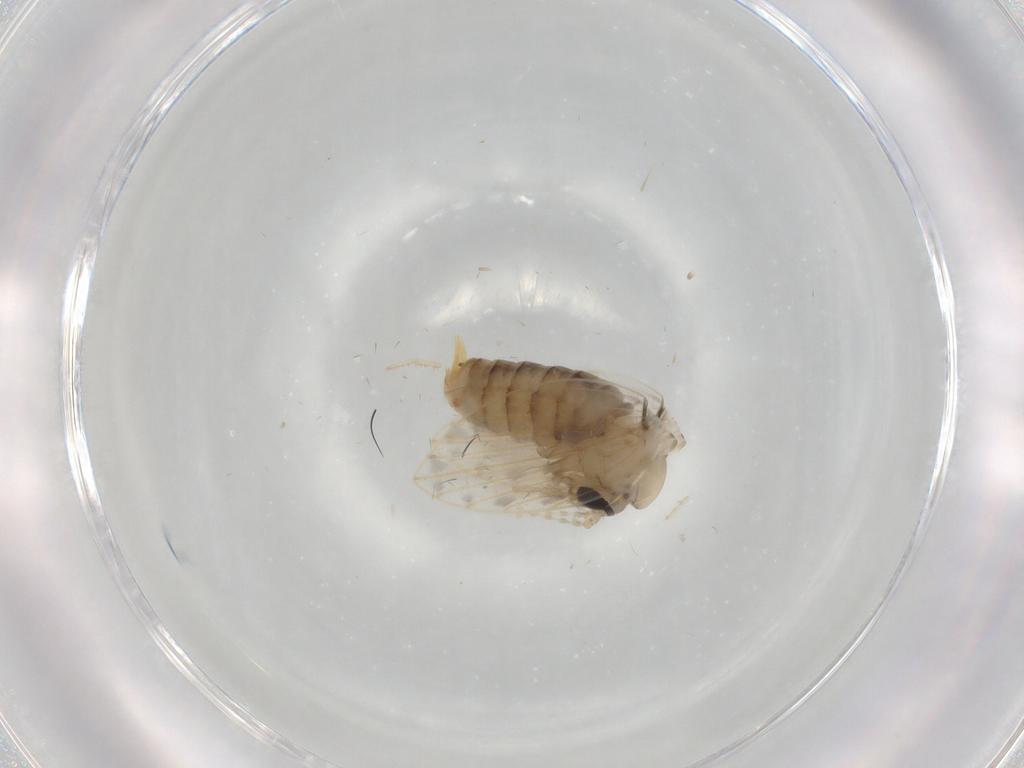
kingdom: Animalia
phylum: Arthropoda
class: Insecta
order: Diptera
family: Psychodidae
